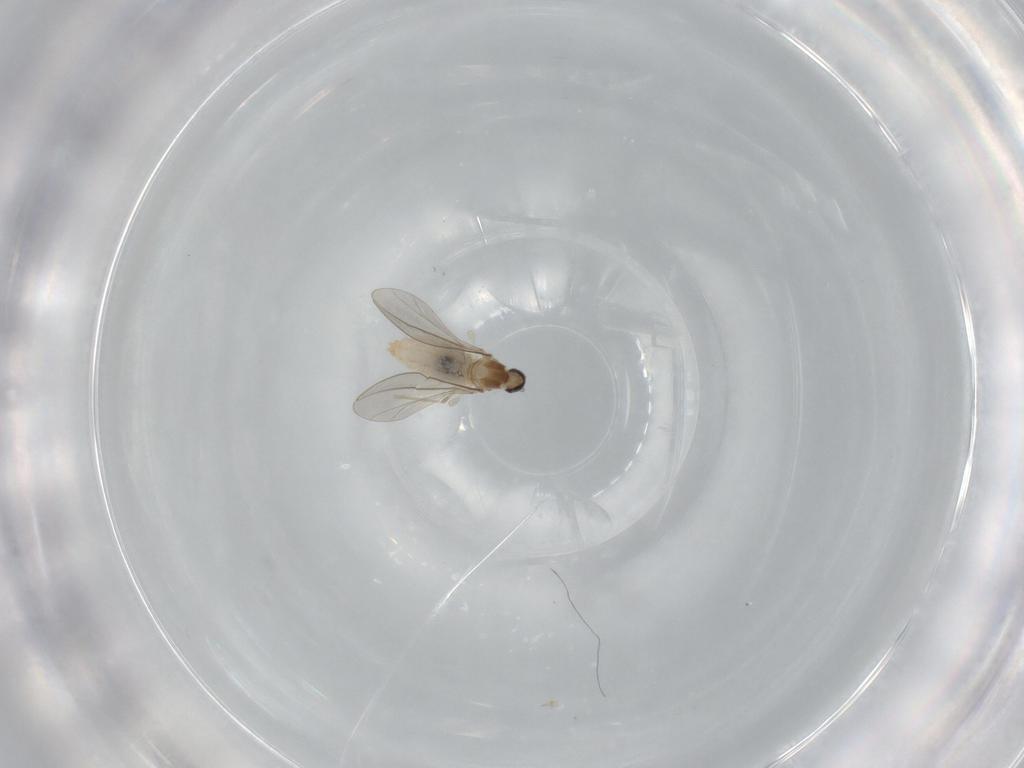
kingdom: Animalia
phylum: Arthropoda
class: Insecta
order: Diptera
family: Cecidomyiidae
